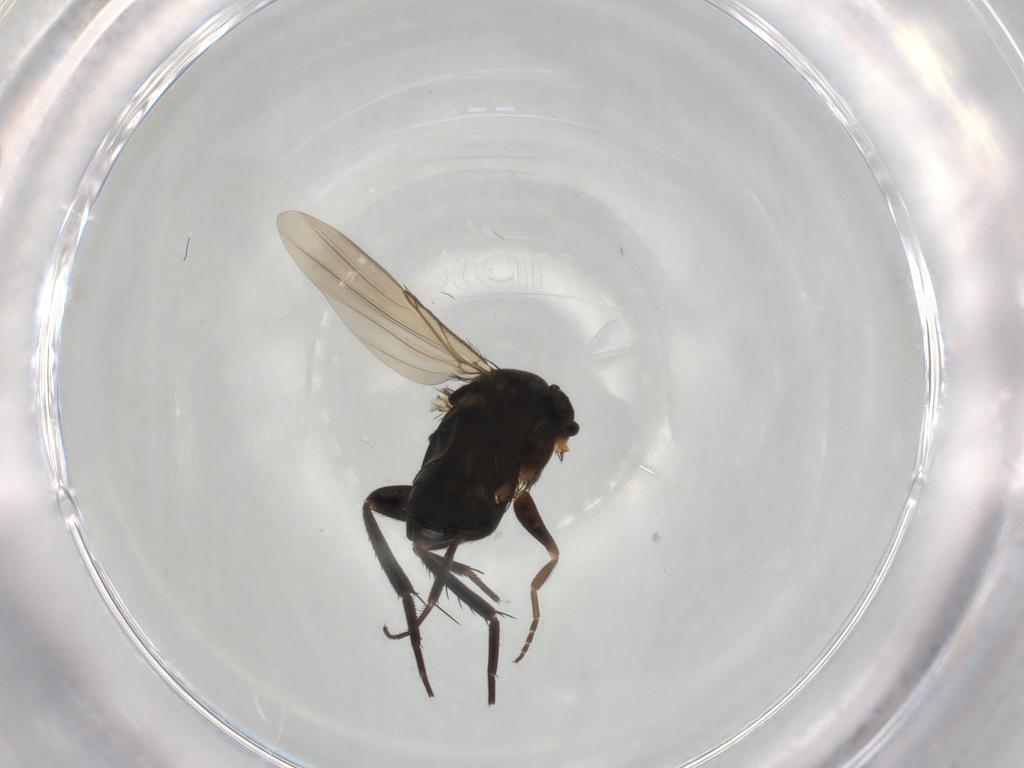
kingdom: Animalia
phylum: Arthropoda
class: Insecta
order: Diptera
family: Phoridae
